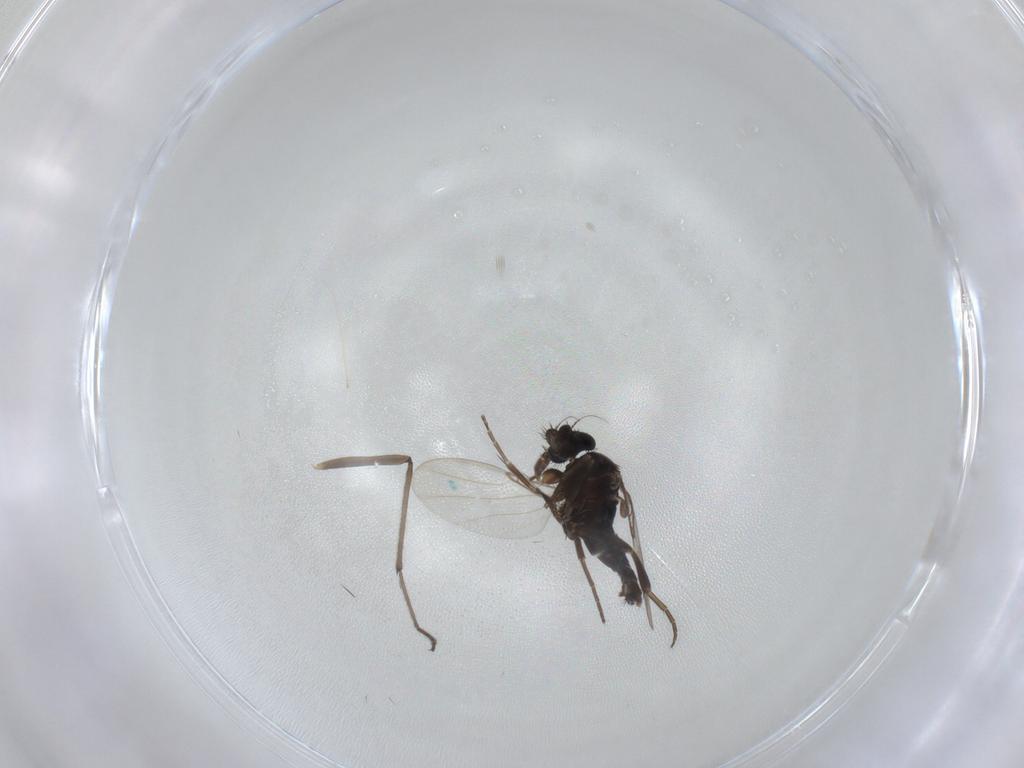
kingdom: Animalia
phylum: Arthropoda
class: Insecta
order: Diptera
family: Phoridae
